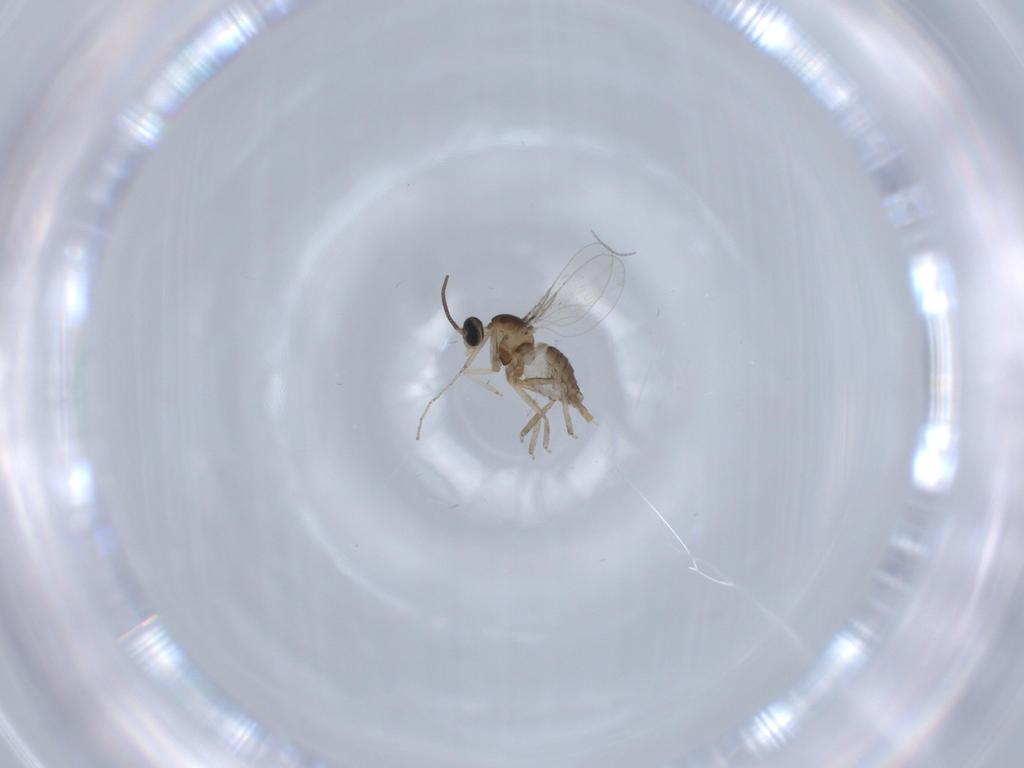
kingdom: Animalia
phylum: Arthropoda
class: Insecta
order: Diptera
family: Cecidomyiidae
